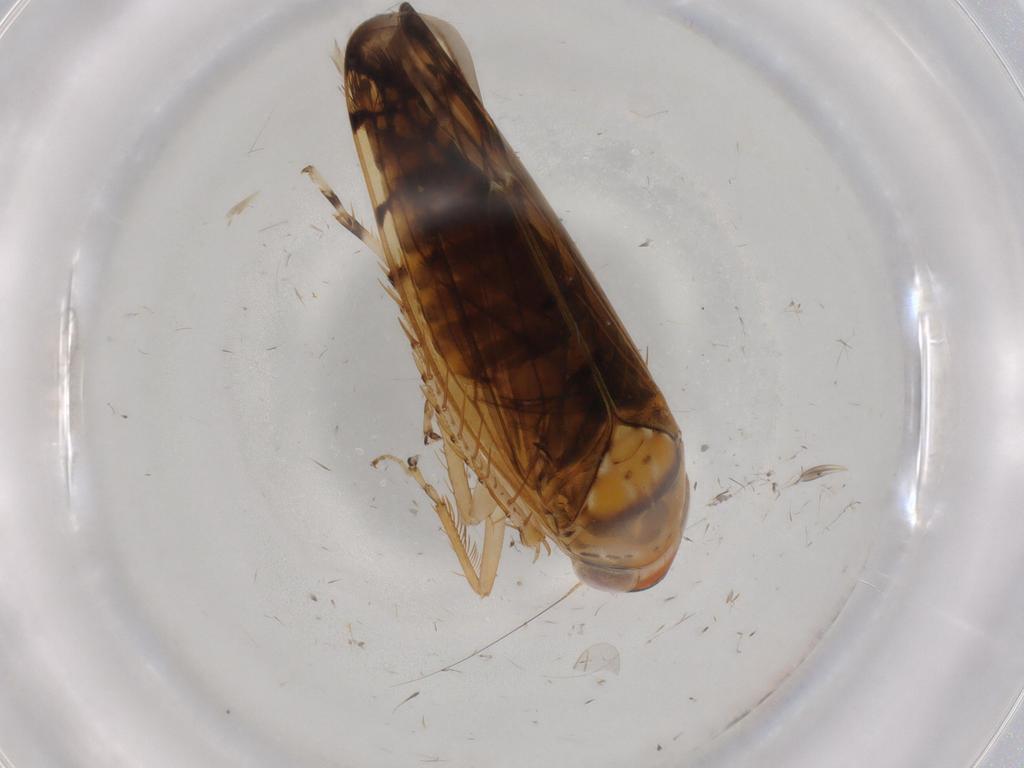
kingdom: Animalia
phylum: Arthropoda
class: Insecta
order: Hemiptera
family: Cicadellidae
